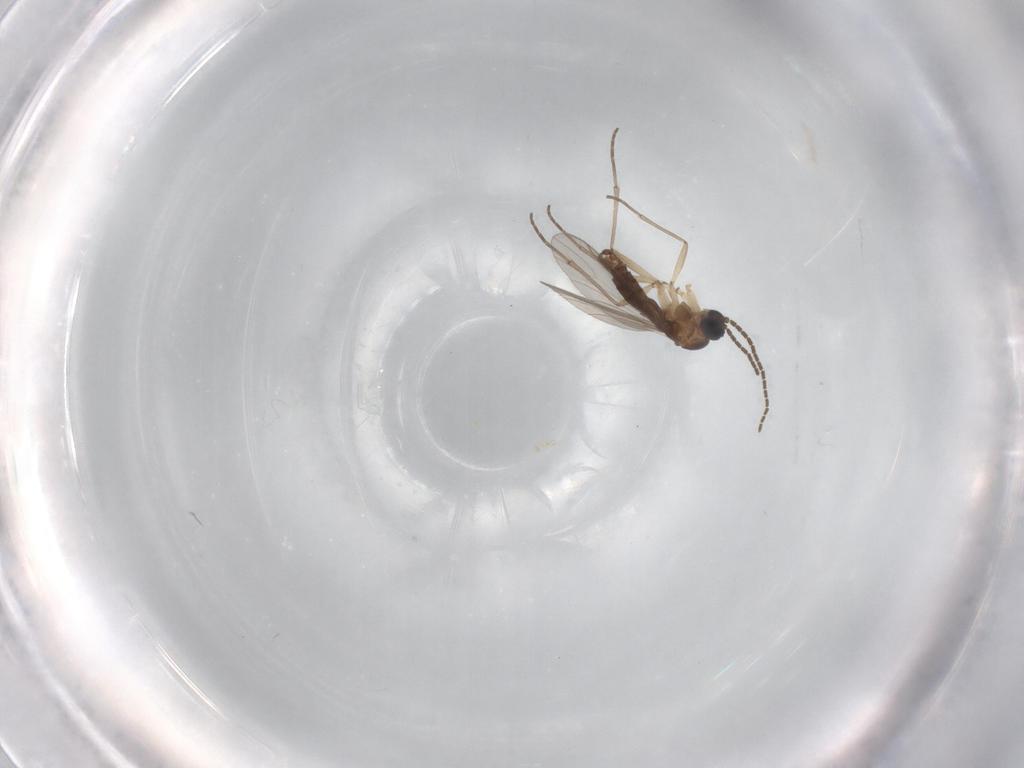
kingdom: Animalia
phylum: Arthropoda
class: Insecta
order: Diptera
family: Sciaridae
